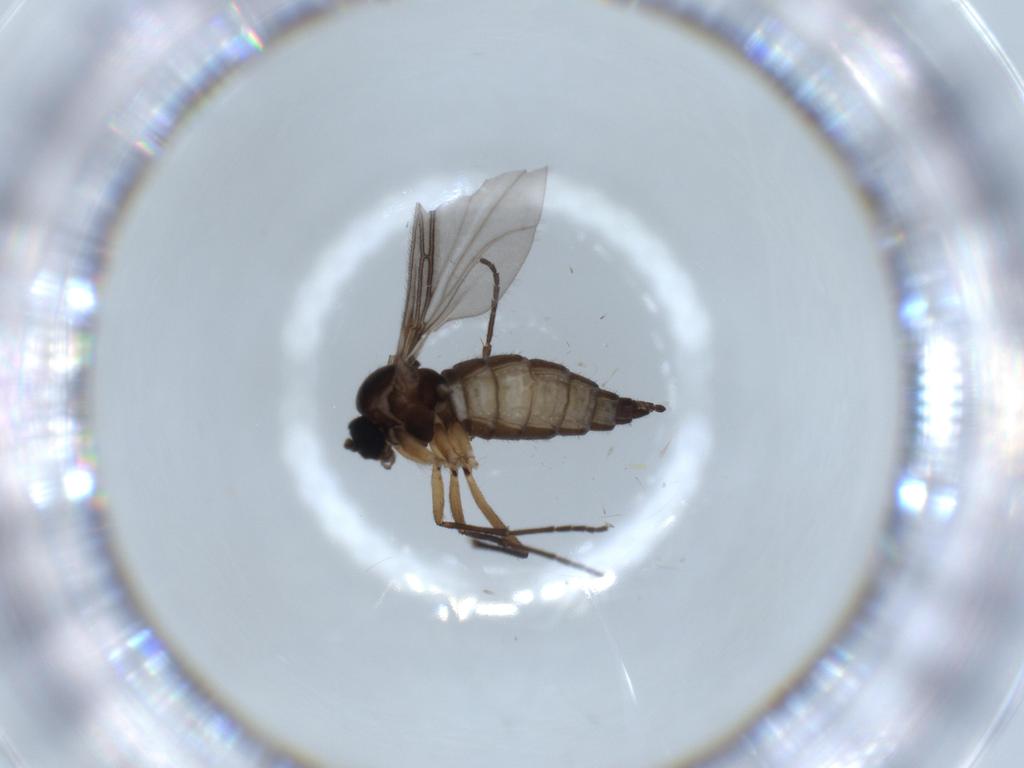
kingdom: Animalia
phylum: Arthropoda
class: Insecta
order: Diptera
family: Sciaridae
